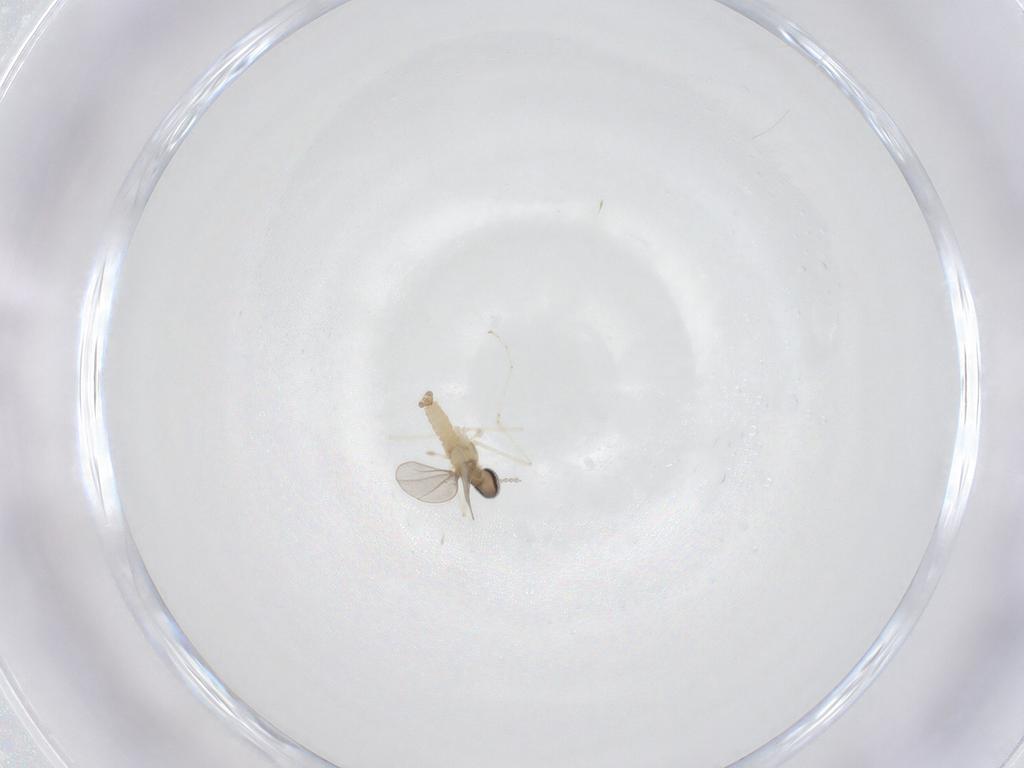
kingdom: Animalia
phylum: Arthropoda
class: Insecta
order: Diptera
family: Cecidomyiidae
